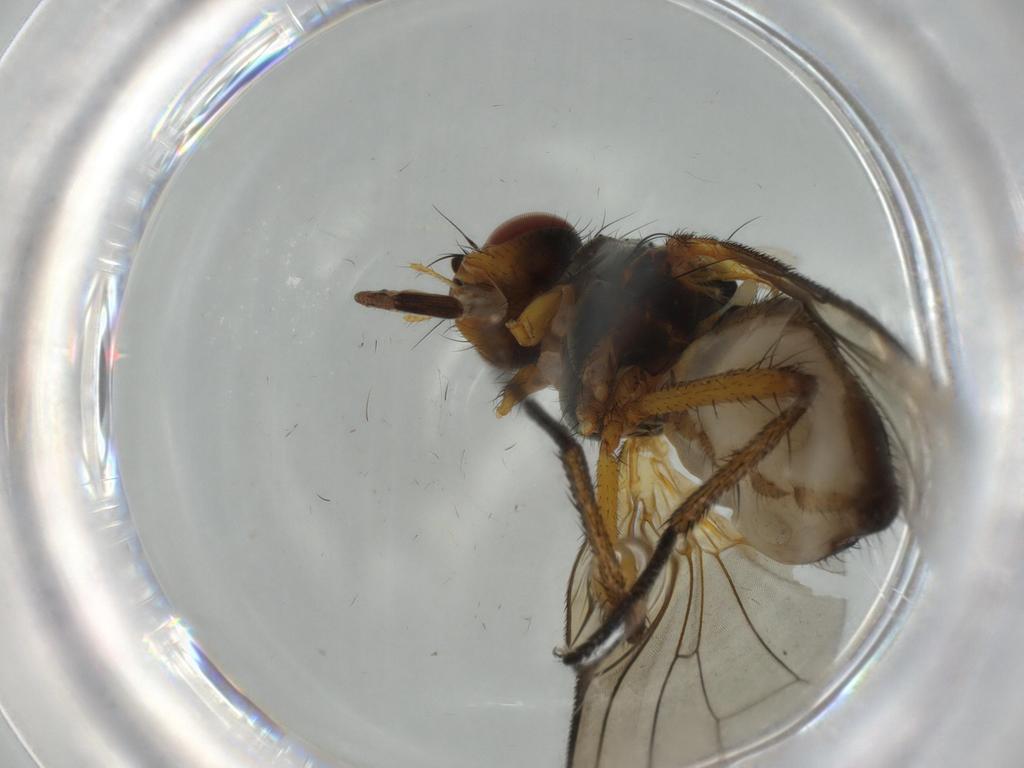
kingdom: Animalia
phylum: Arthropoda
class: Insecta
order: Diptera
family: Anthomyiidae
